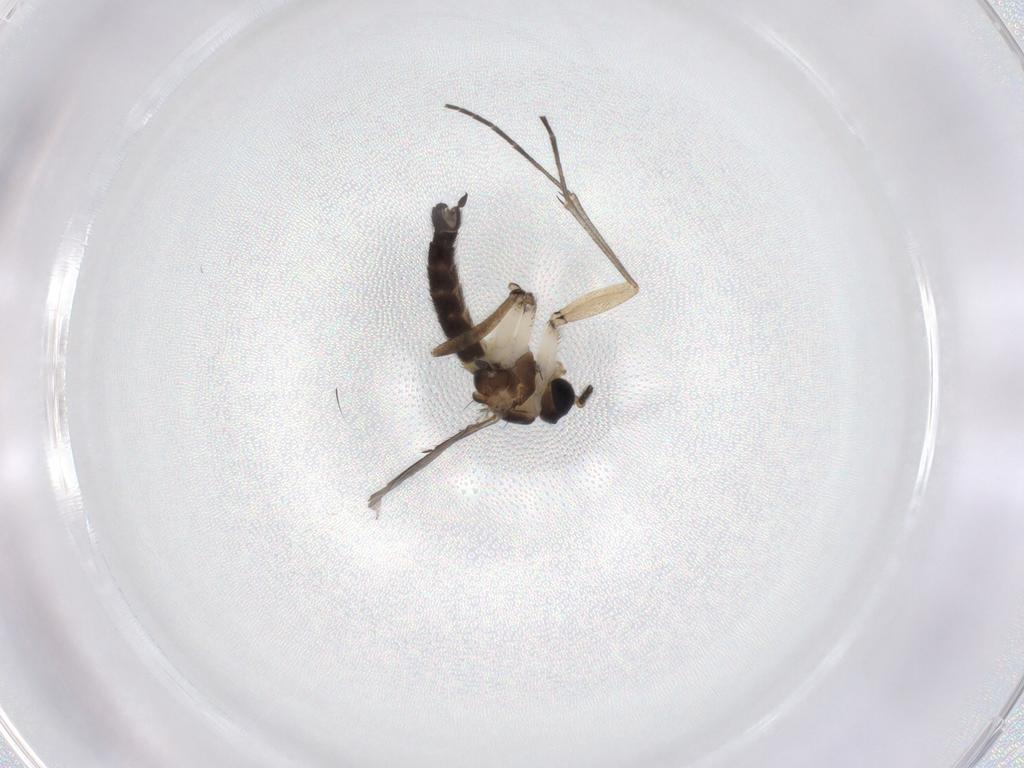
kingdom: Animalia
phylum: Arthropoda
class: Insecta
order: Diptera
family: Sciaridae
